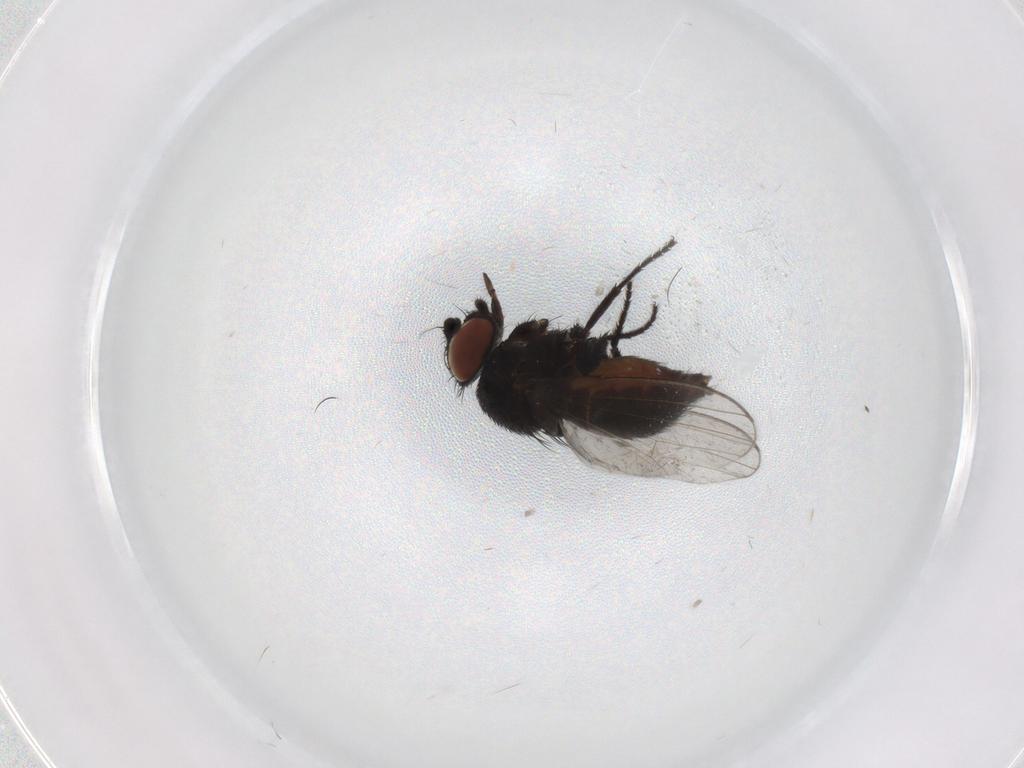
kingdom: Animalia
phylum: Arthropoda
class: Insecta
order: Diptera
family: Milichiidae
